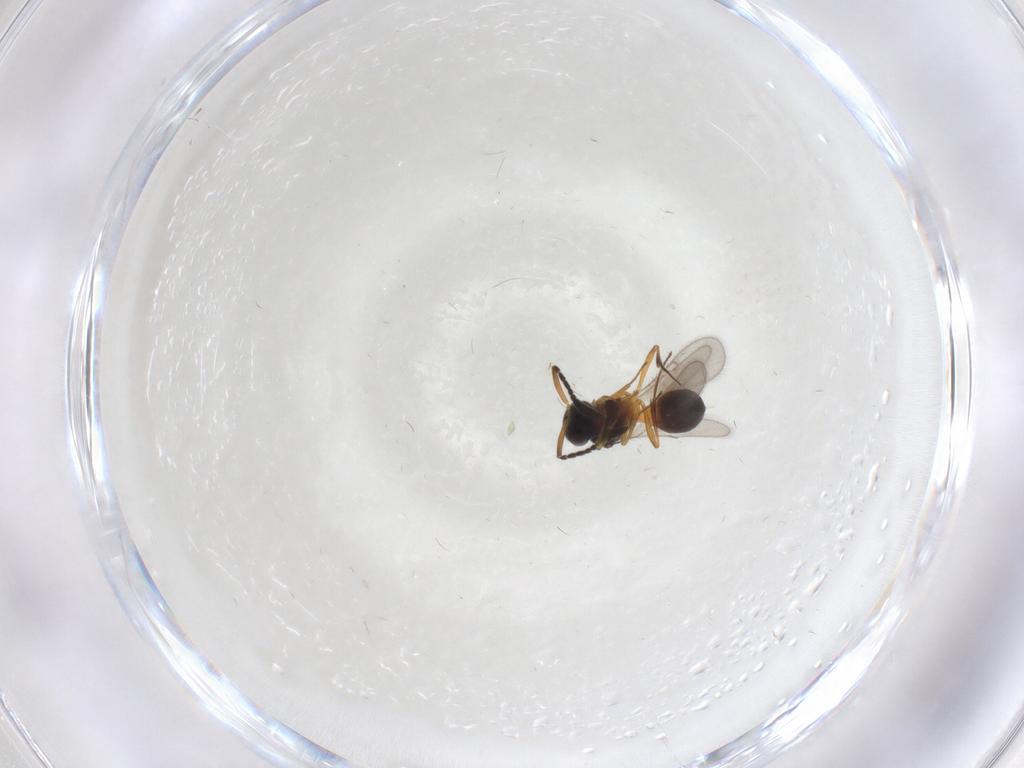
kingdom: Animalia
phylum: Arthropoda
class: Insecta
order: Hymenoptera
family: Scelionidae
